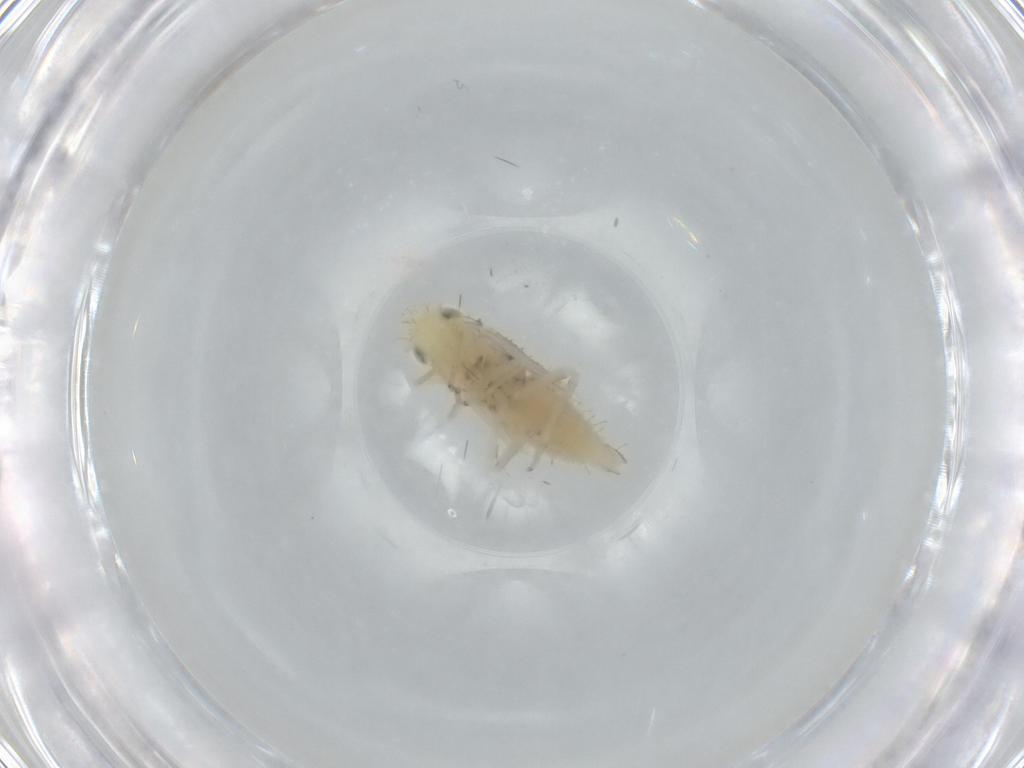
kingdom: Animalia
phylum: Arthropoda
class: Insecta
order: Hemiptera
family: Cicadellidae
